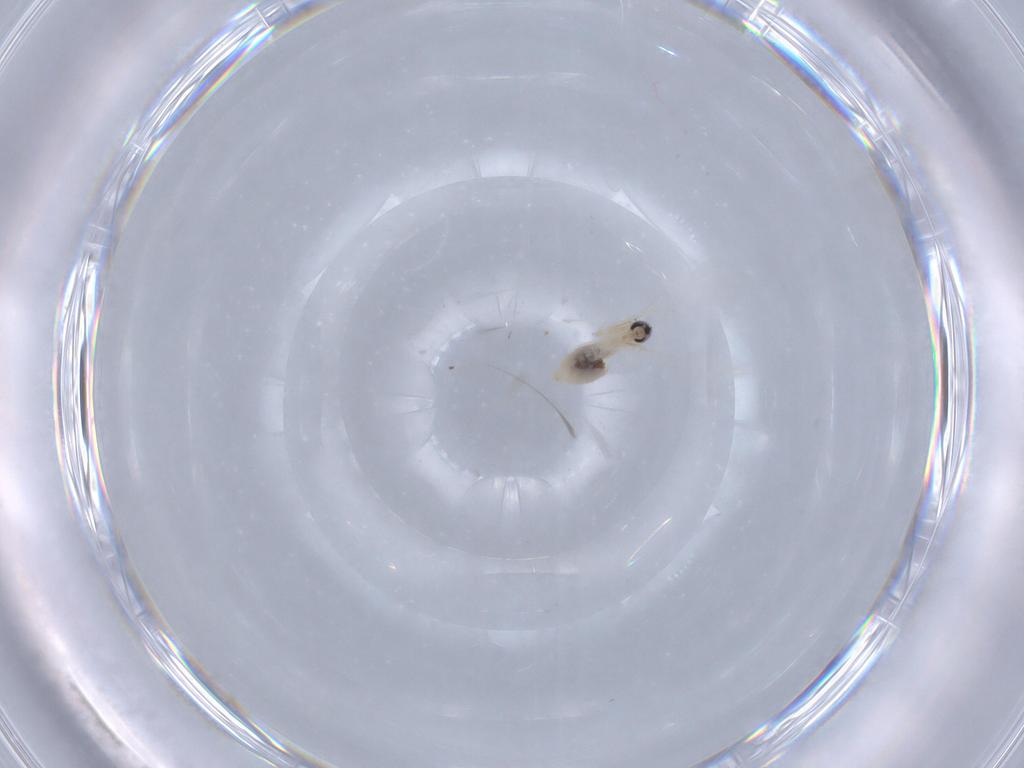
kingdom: Animalia
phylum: Arthropoda
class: Insecta
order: Diptera
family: Cecidomyiidae
